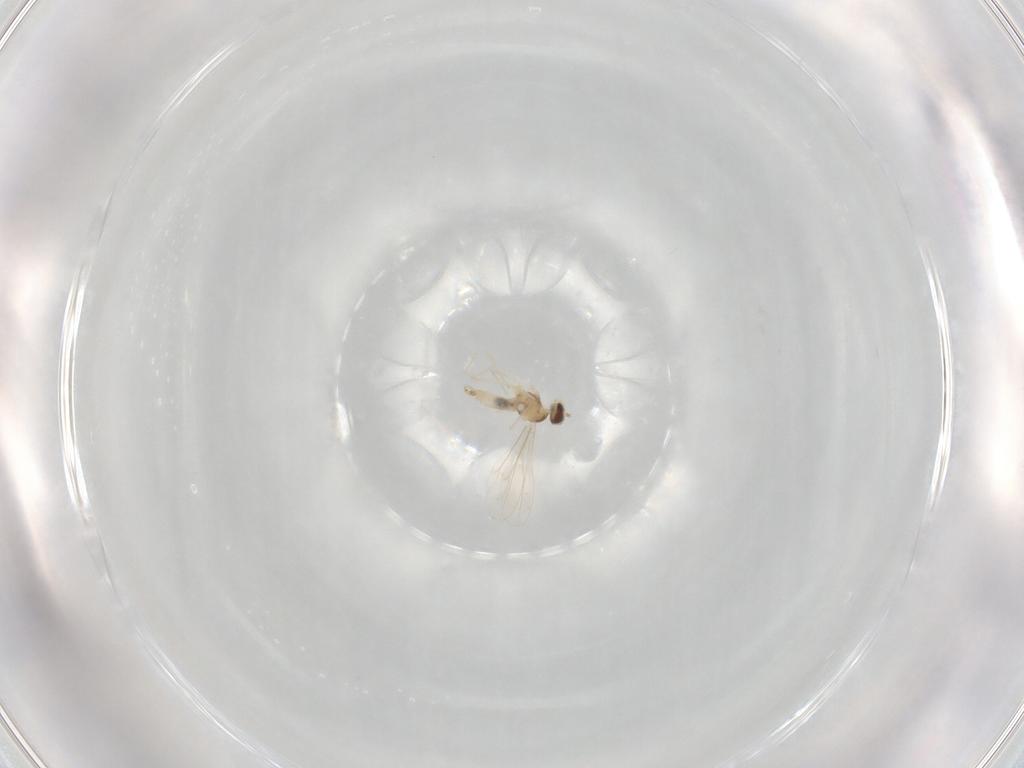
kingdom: Animalia
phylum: Arthropoda
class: Insecta
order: Diptera
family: Cecidomyiidae
